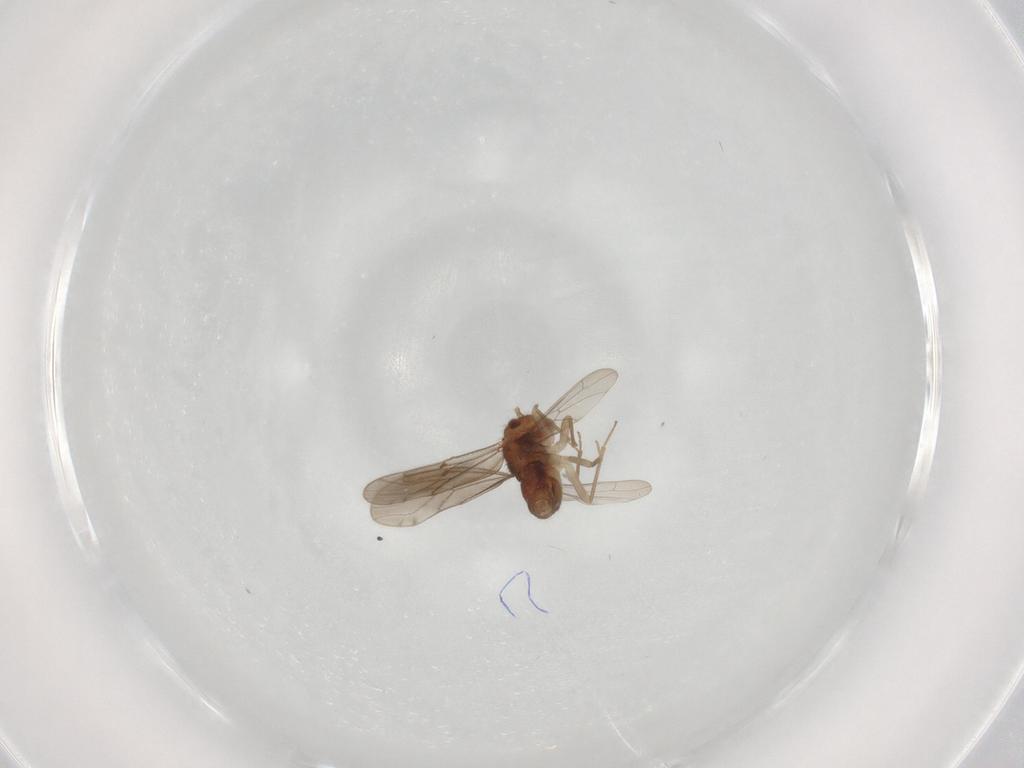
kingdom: Animalia
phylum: Arthropoda
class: Insecta
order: Psocodea
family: Ectopsocidae
